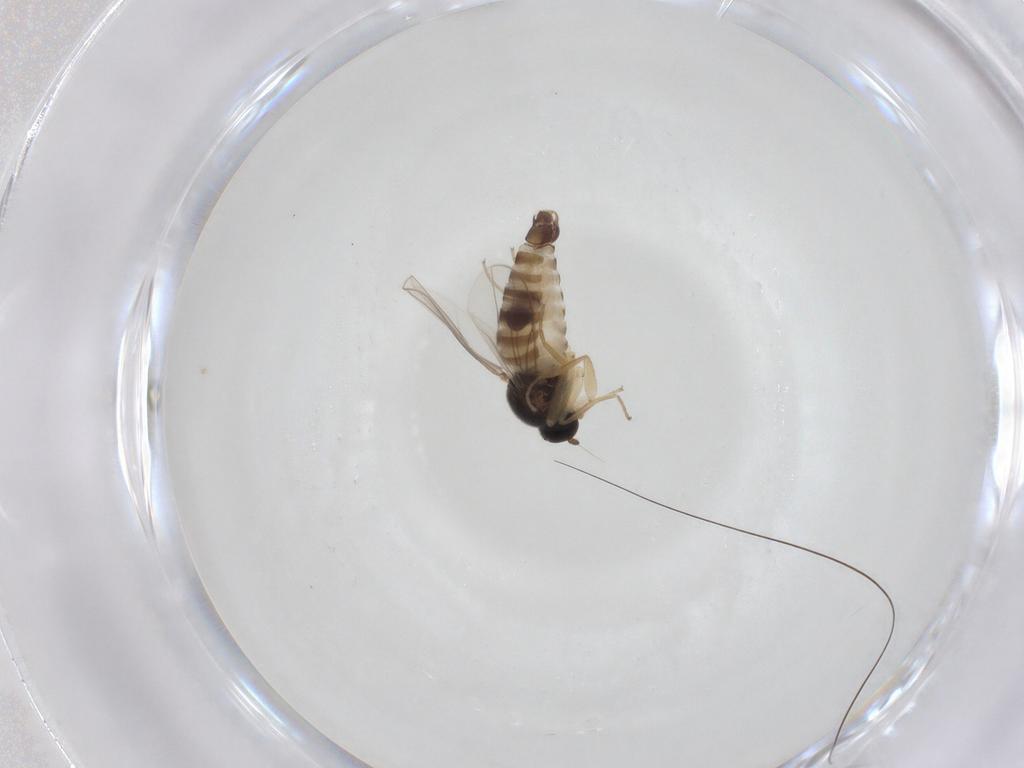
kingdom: Animalia
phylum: Arthropoda
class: Insecta
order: Diptera
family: Hybotidae
